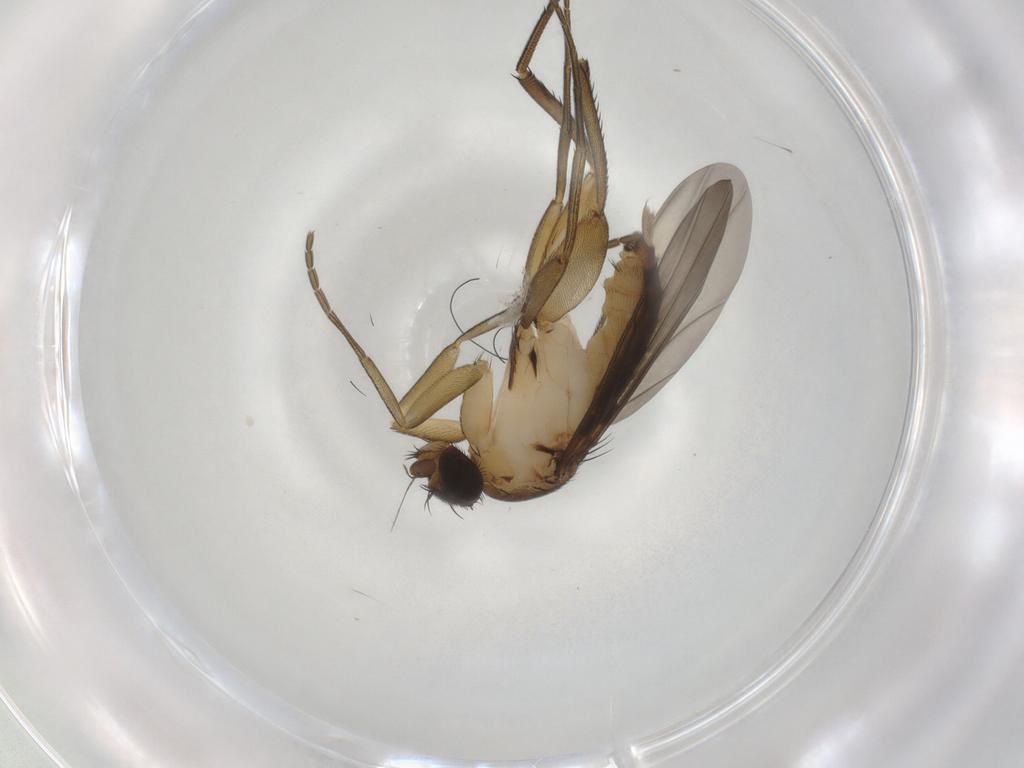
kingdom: Animalia
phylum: Arthropoda
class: Insecta
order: Diptera
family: Phoridae
